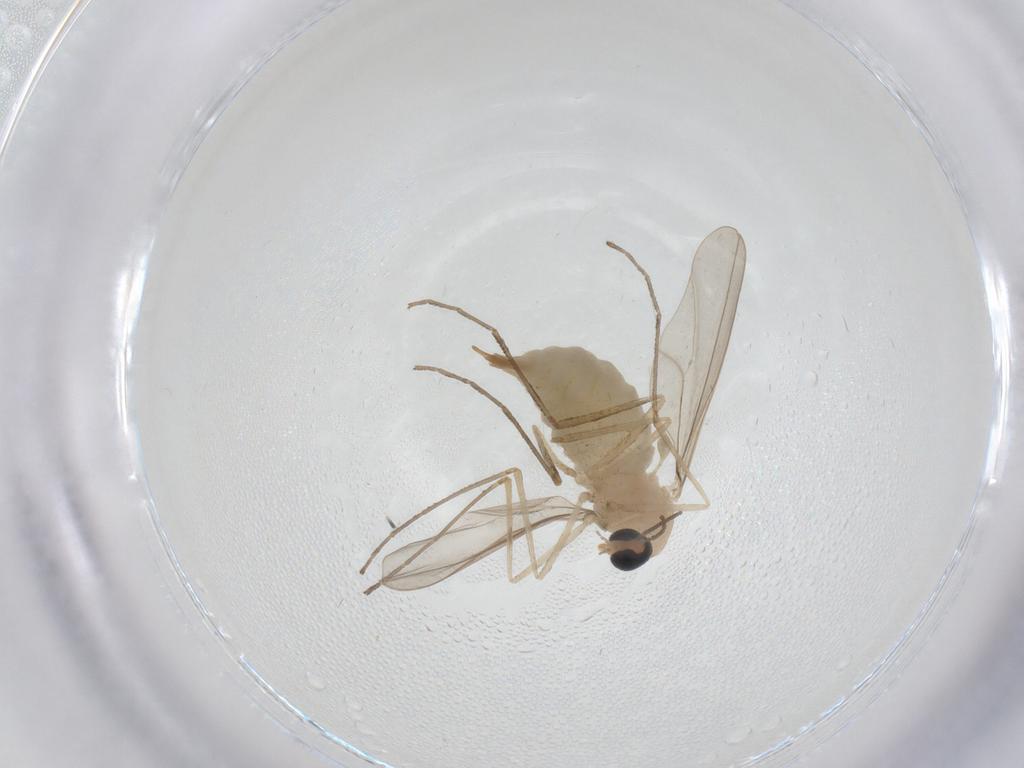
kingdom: Animalia
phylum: Arthropoda
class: Insecta
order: Diptera
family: Cecidomyiidae
